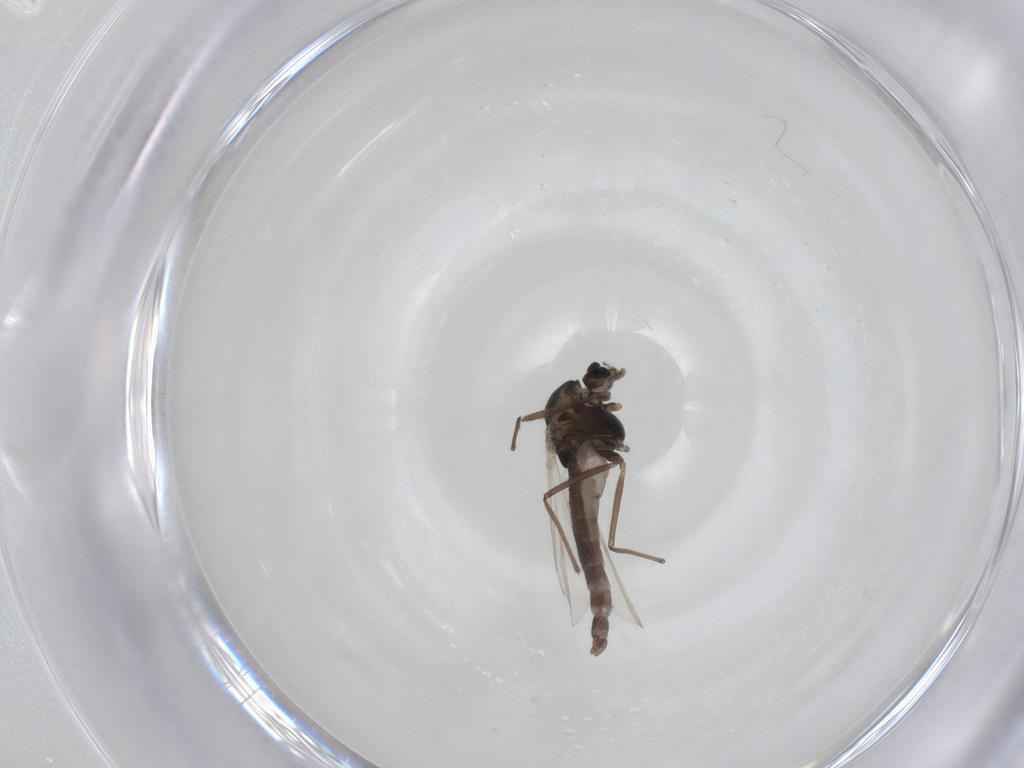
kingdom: Animalia
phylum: Arthropoda
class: Insecta
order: Diptera
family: Chironomidae
